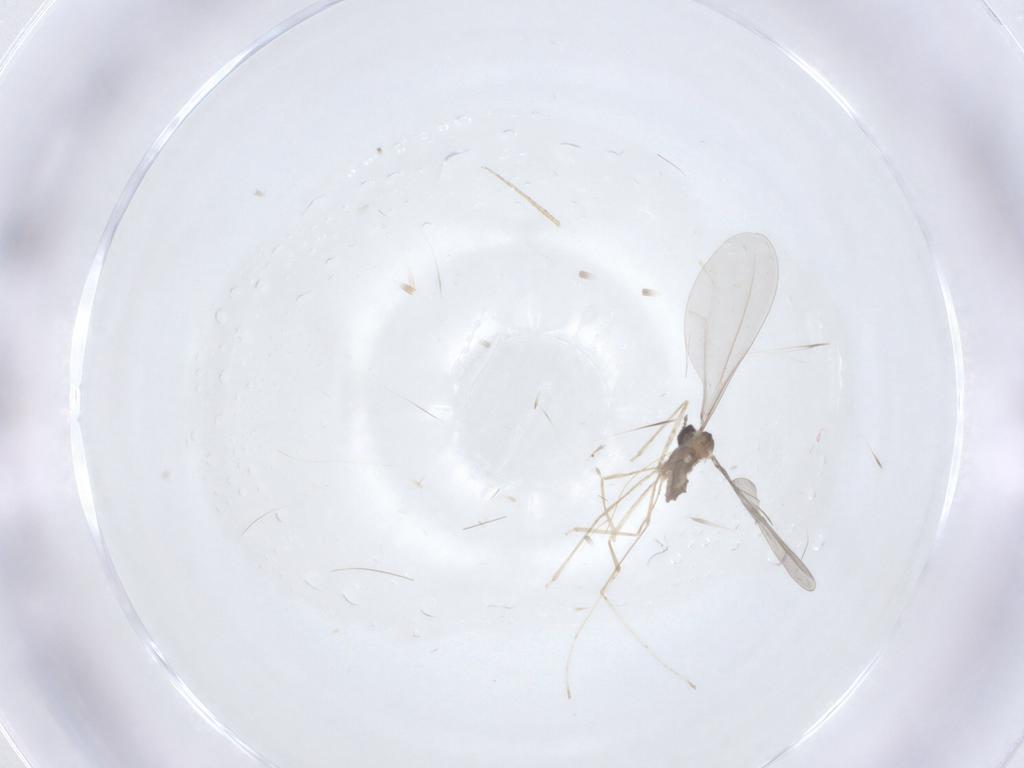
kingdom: Animalia
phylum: Arthropoda
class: Insecta
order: Diptera
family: Cecidomyiidae
